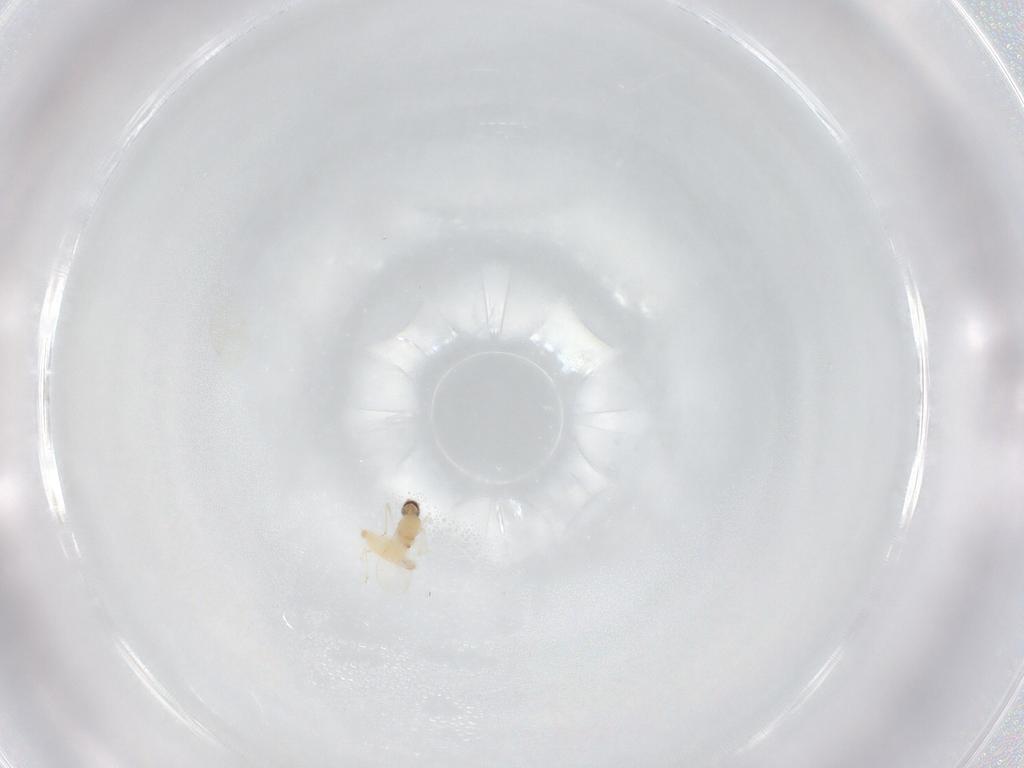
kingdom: Animalia
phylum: Arthropoda
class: Insecta
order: Diptera
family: Cecidomyiidae
